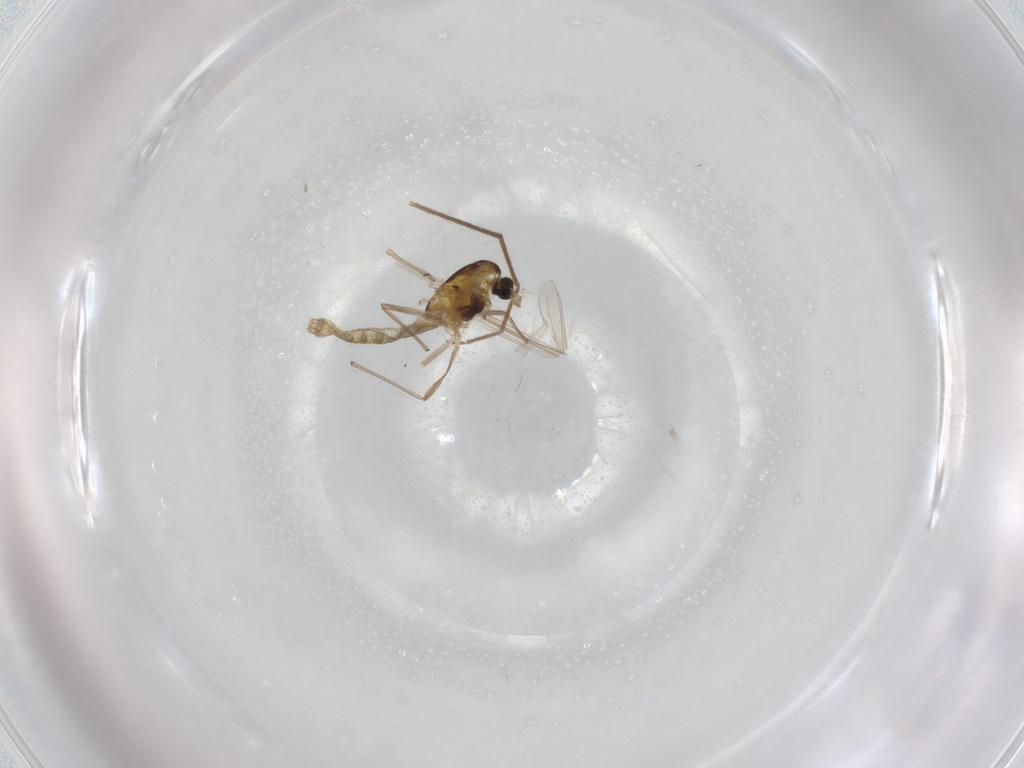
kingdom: Animalia
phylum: Arthropoda
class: Insecta
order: Diptera
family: Chironomidae
